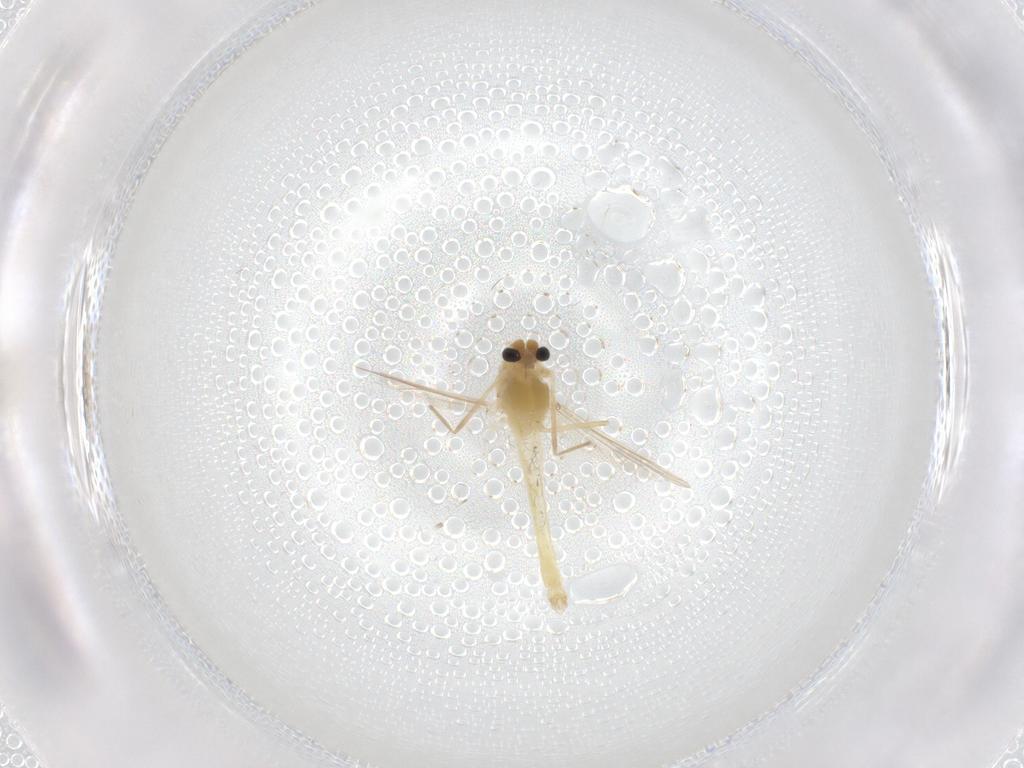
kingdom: Animalia
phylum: Arthropoda
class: Insecta
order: Diptera
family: Chironomidae
